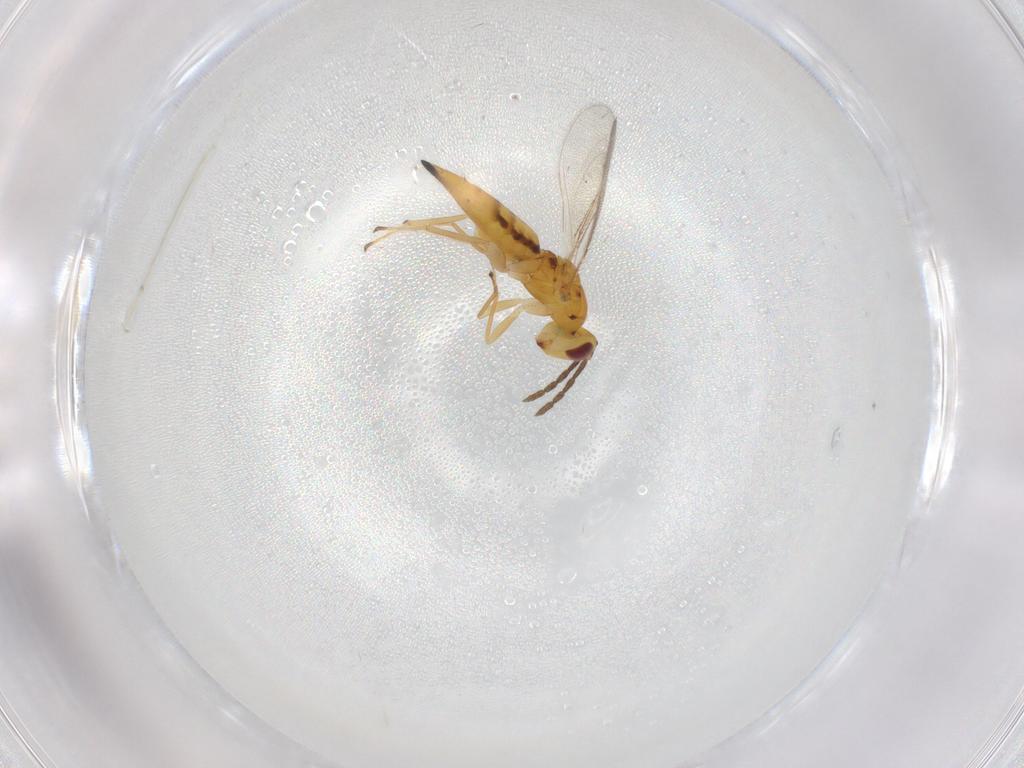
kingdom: Animalia
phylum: Arthropoda
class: Insecta
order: Hymenoptera
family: Eulophidae
